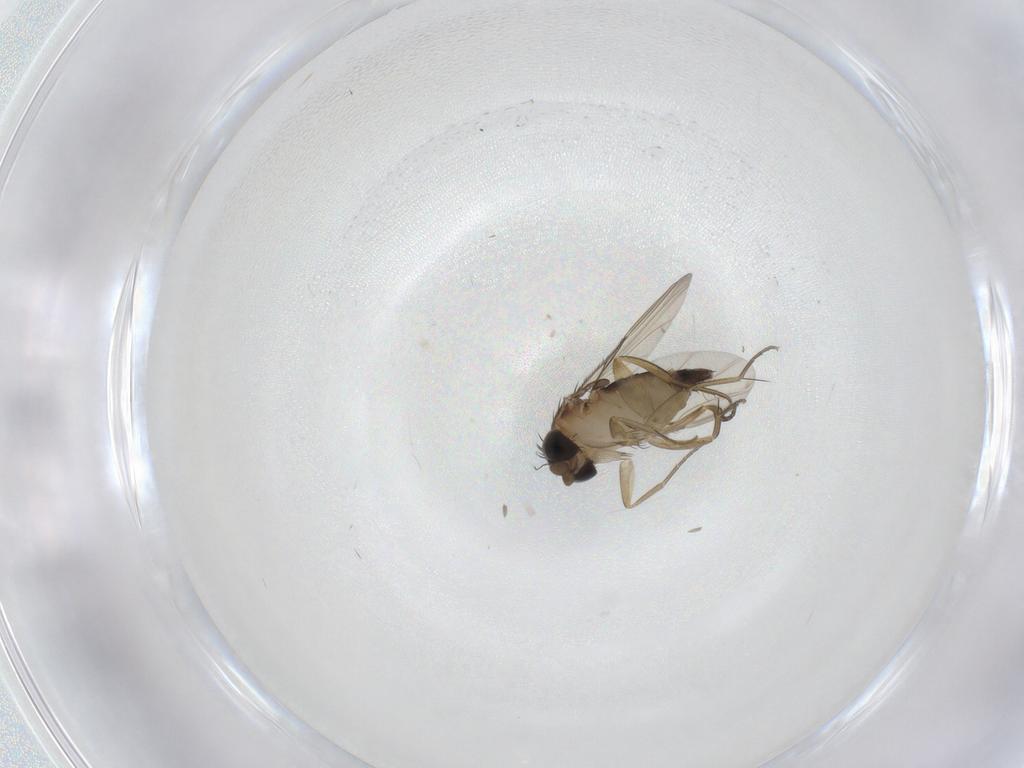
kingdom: Animalia
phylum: Arthropoda
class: Insecta
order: Diptera
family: Phoridae
